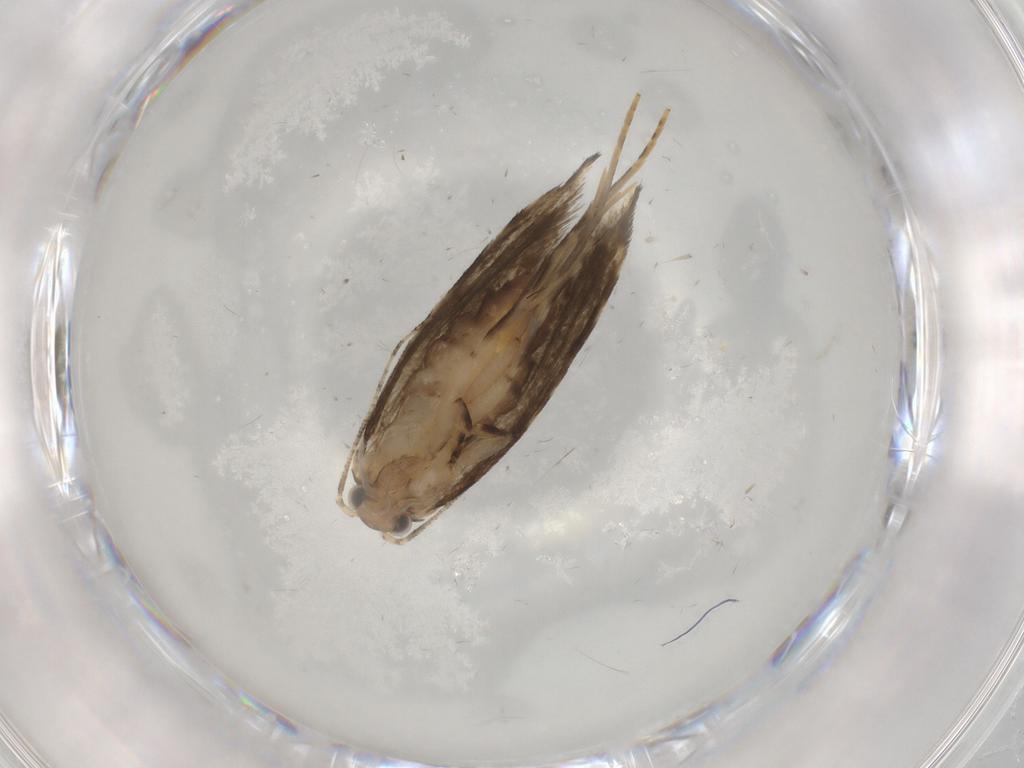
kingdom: Animalia
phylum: Arthropoda
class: Insecta
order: Lepidoptera
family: Tineidae
